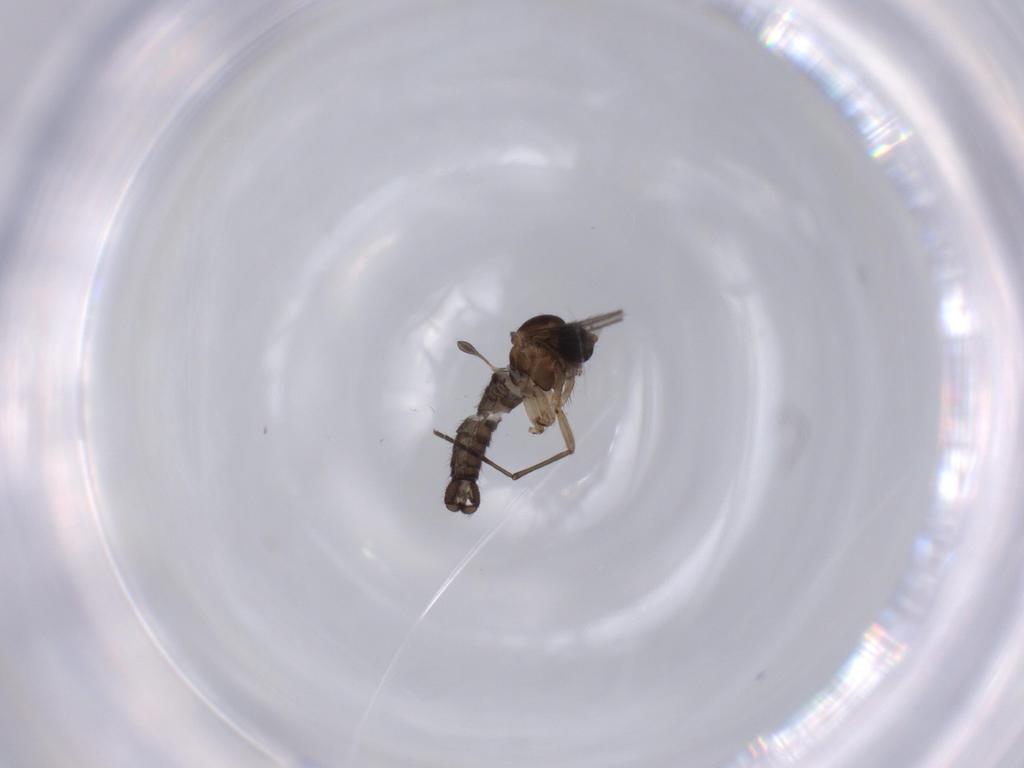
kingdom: Animalia
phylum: Arthropoda
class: Insecta
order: Diptera
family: Sciaridae
